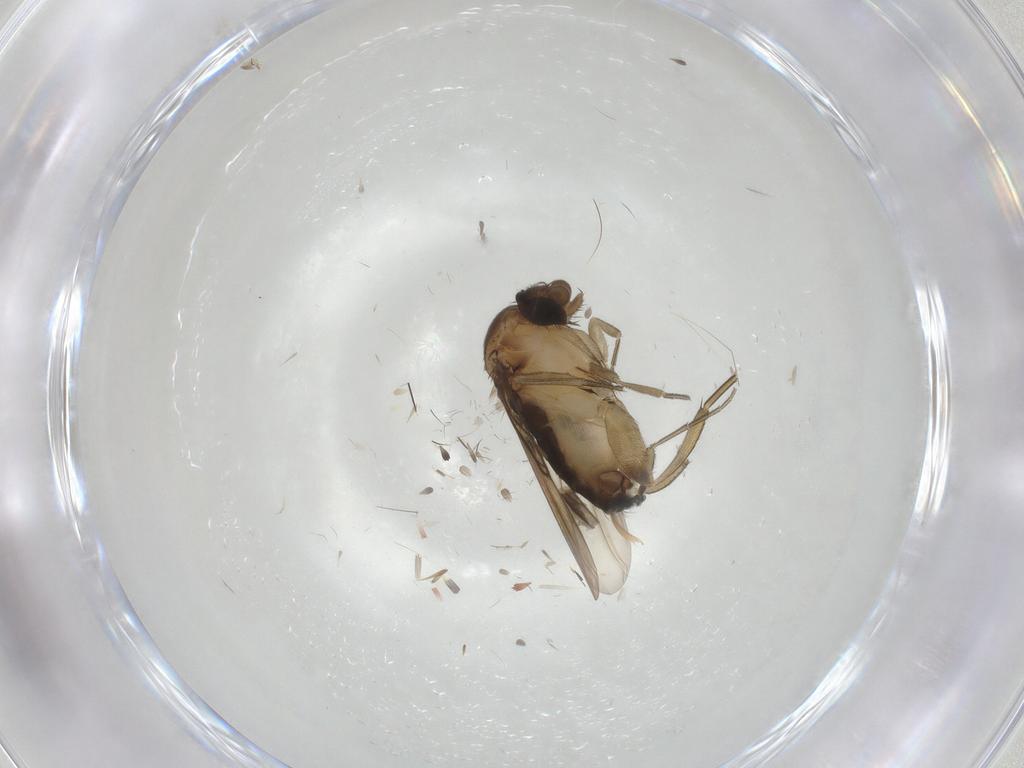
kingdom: Animalia
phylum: Arthropoda
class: Insecta
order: Diptera
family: Phoridae
